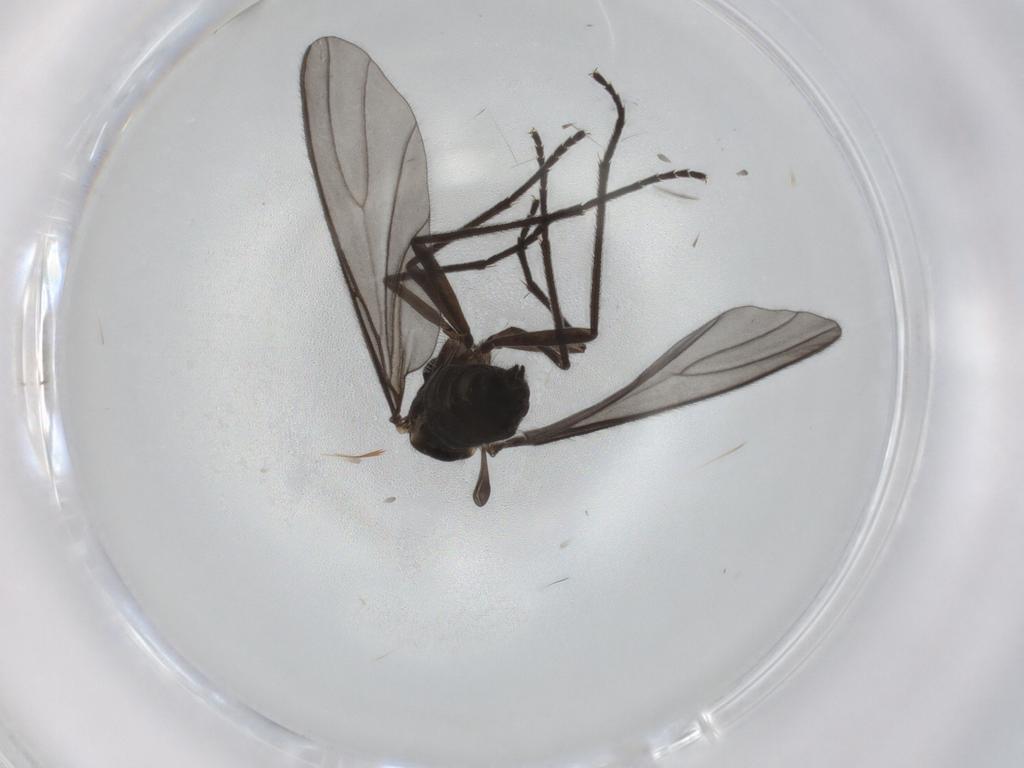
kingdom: Animalia
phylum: Arthropoda
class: Insecta
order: Diptera
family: Sciaridae
